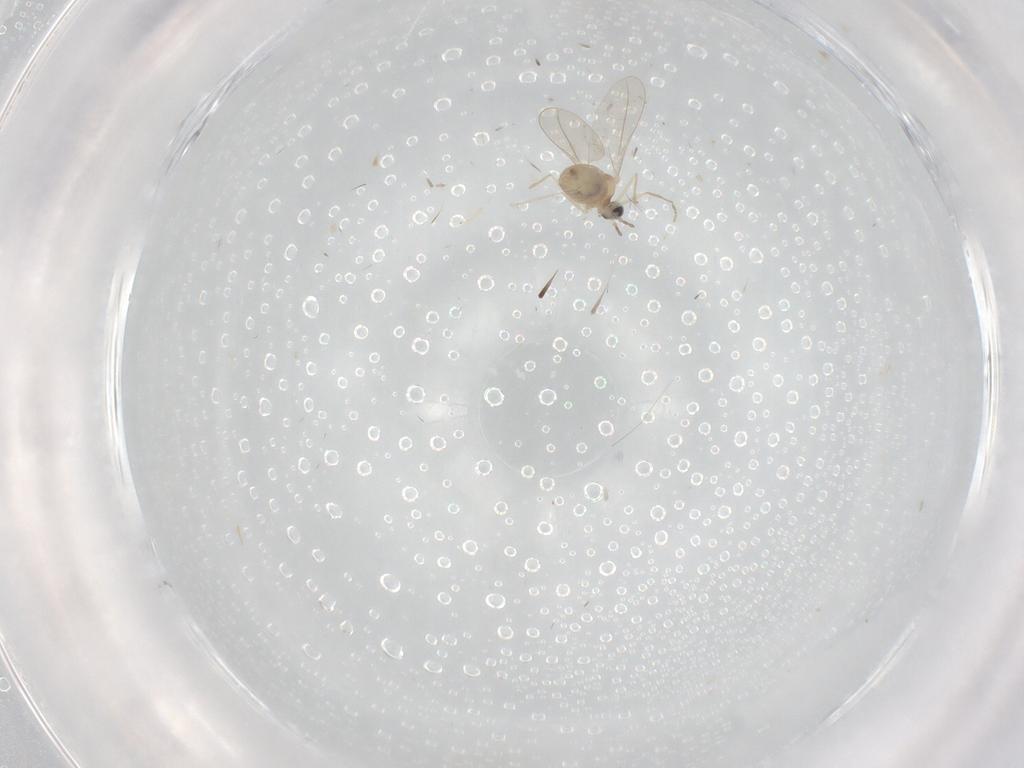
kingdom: Animalia
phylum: Arthropoda
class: Insecta
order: Diptera
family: Cecidomyiidae
